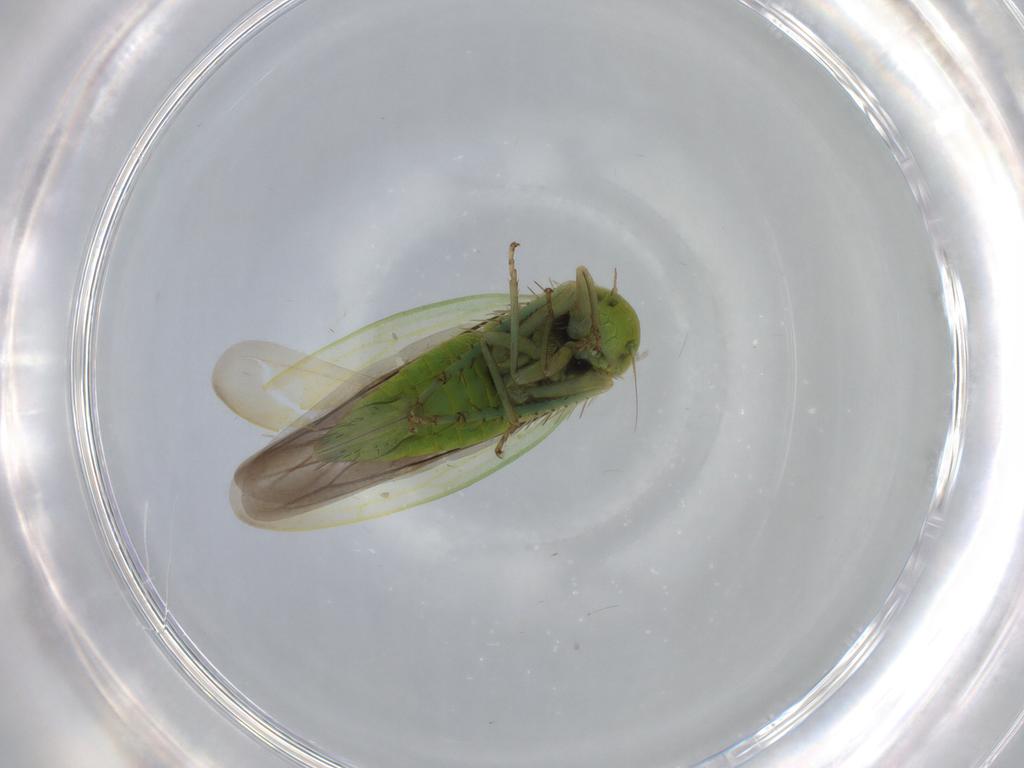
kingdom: Animalia
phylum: Arthropoda
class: Insecta
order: Hemiptera
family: Cicadellidae
